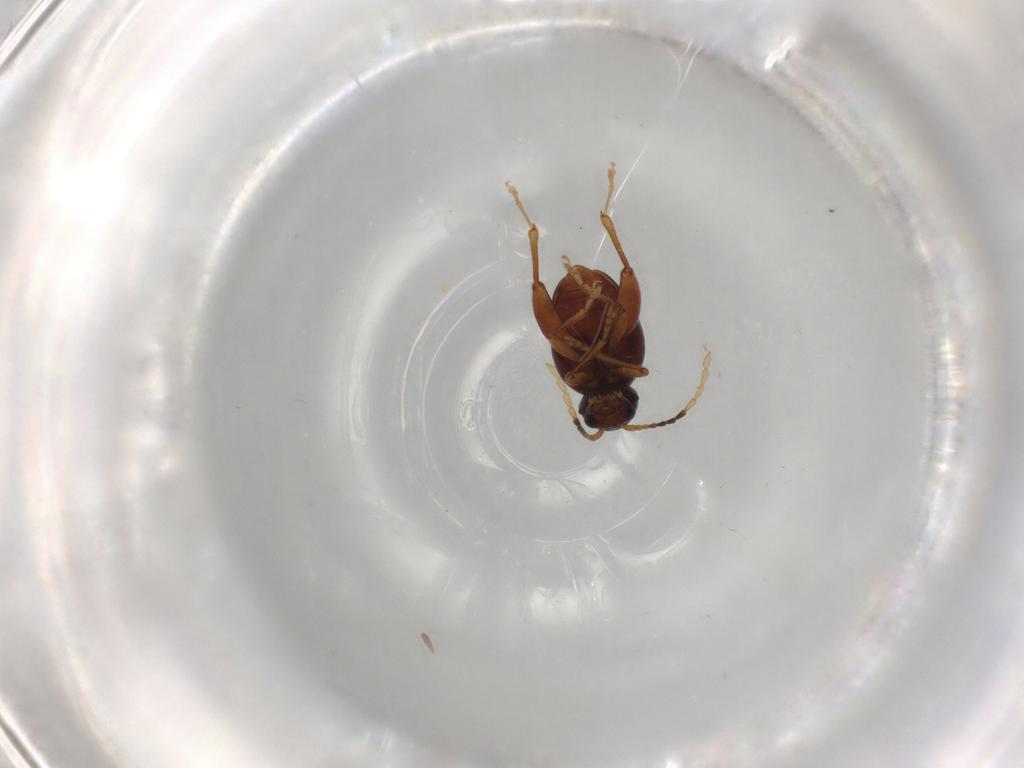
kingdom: Animalia
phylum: Arthropoda
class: Insecta
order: Coleoptera
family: Chrysomelidae
